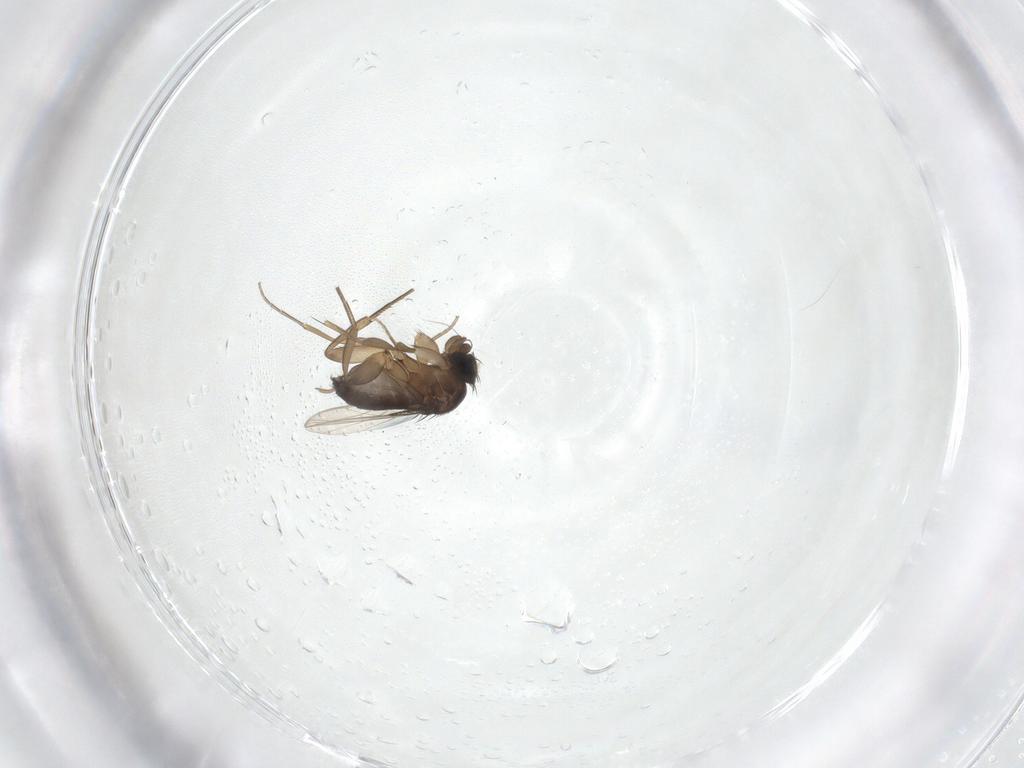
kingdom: Animalia
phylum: Arthropoda
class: Insecta
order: Diptera
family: Phoridae
